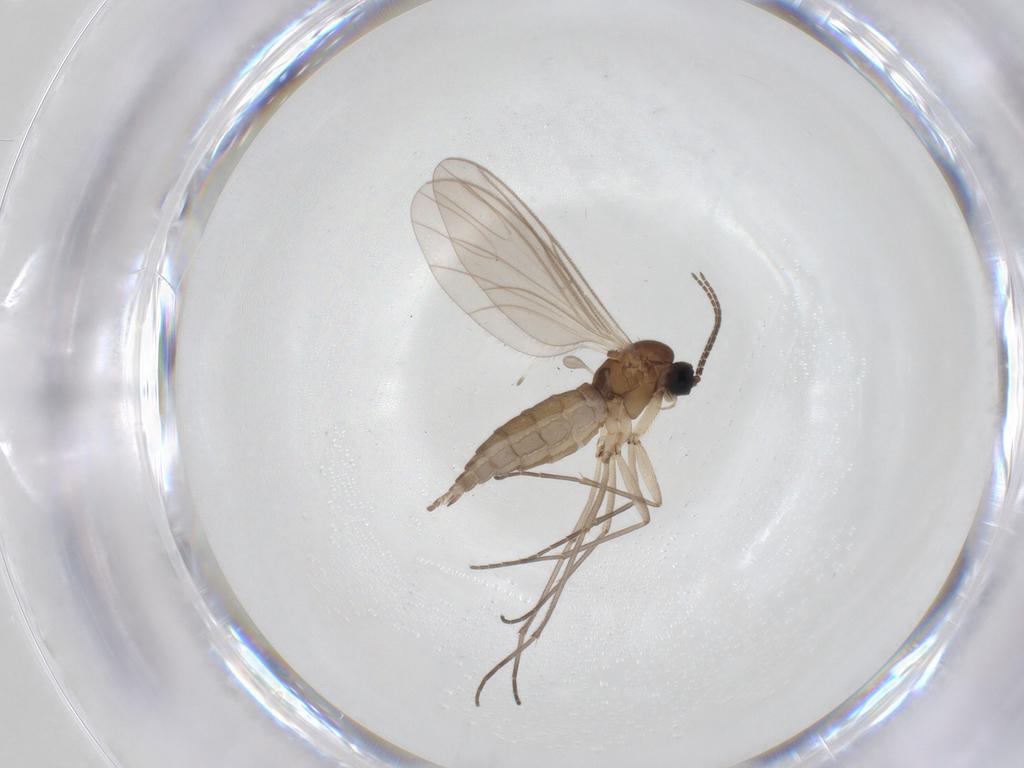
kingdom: Animalia
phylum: Arthropoda
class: Insecta
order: Diptera
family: Sciaridae
